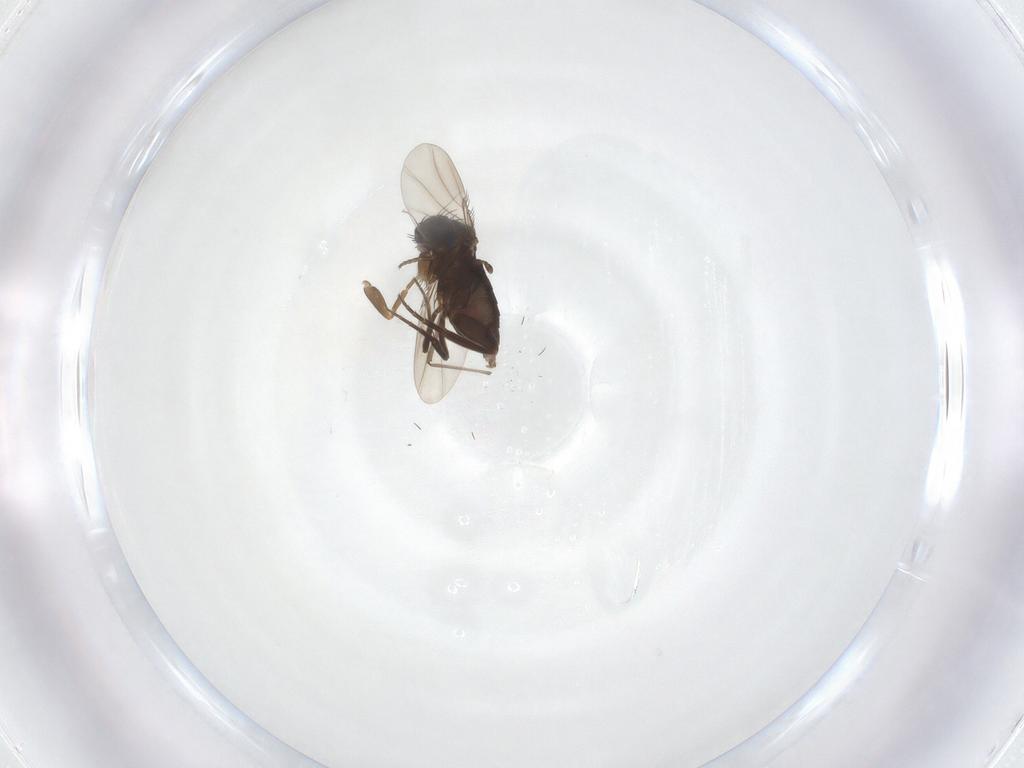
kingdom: Animalia
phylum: Arthropoda
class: Insecta
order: Diptera
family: Chironomidae
